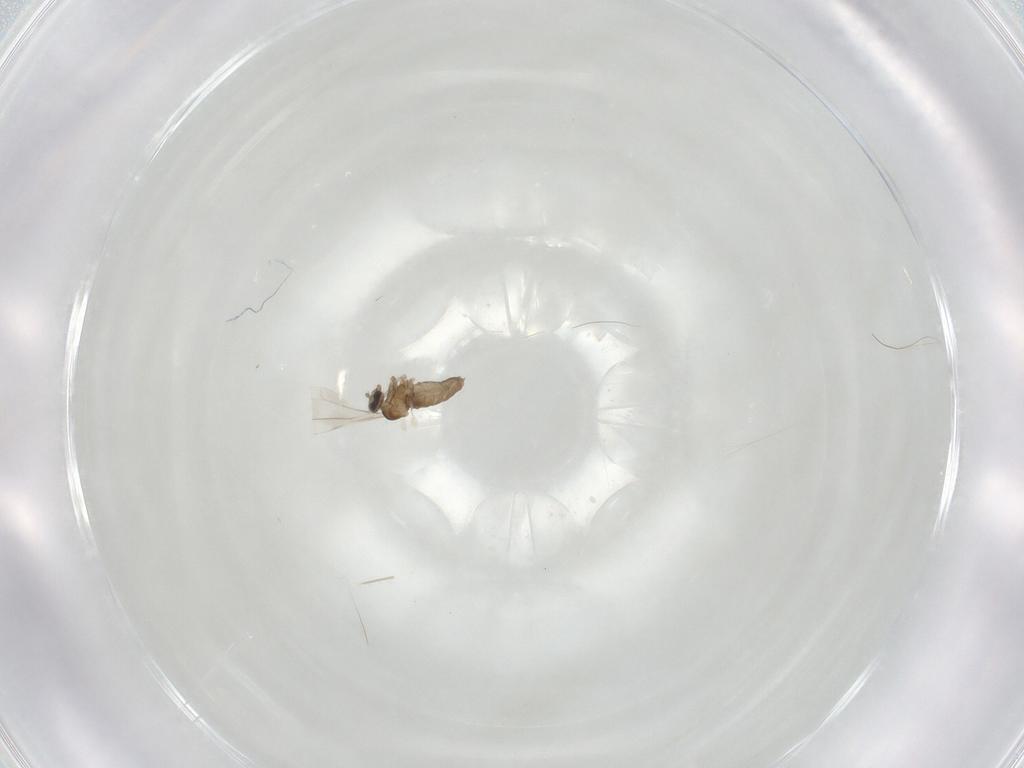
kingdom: Animalia
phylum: Arthropoda
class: Insecta
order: Diptera
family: Cecidomyiidae
